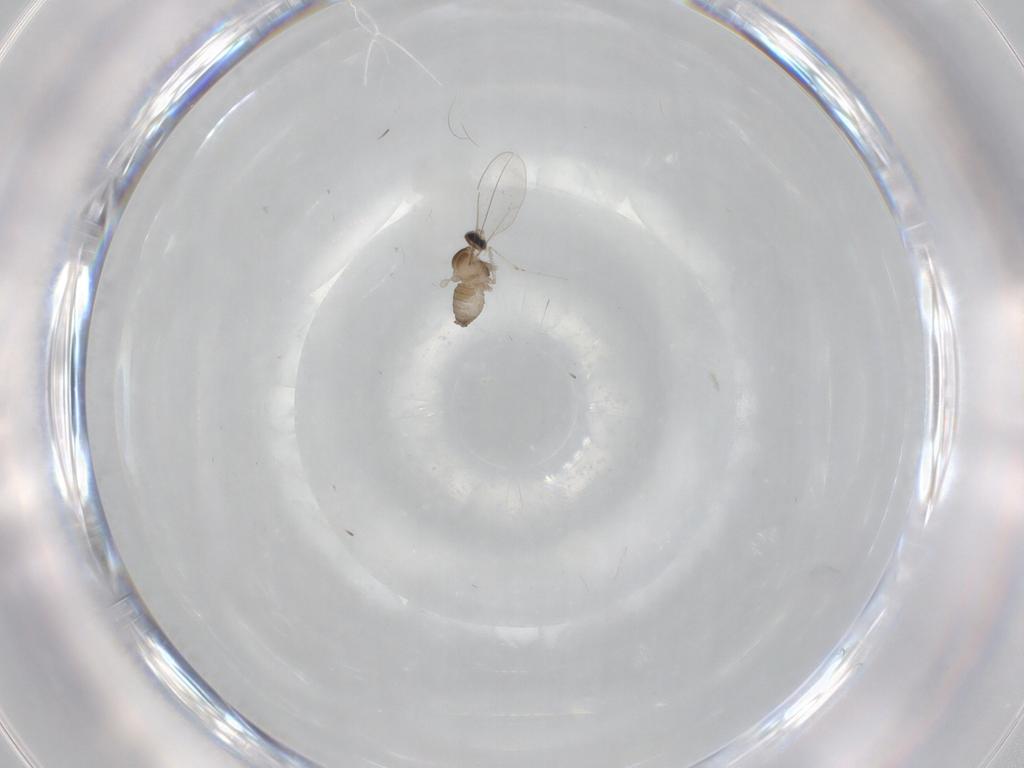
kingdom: Animalia
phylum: Arthropoda
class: Insecta
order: Diptera
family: Cecidomyiidae
